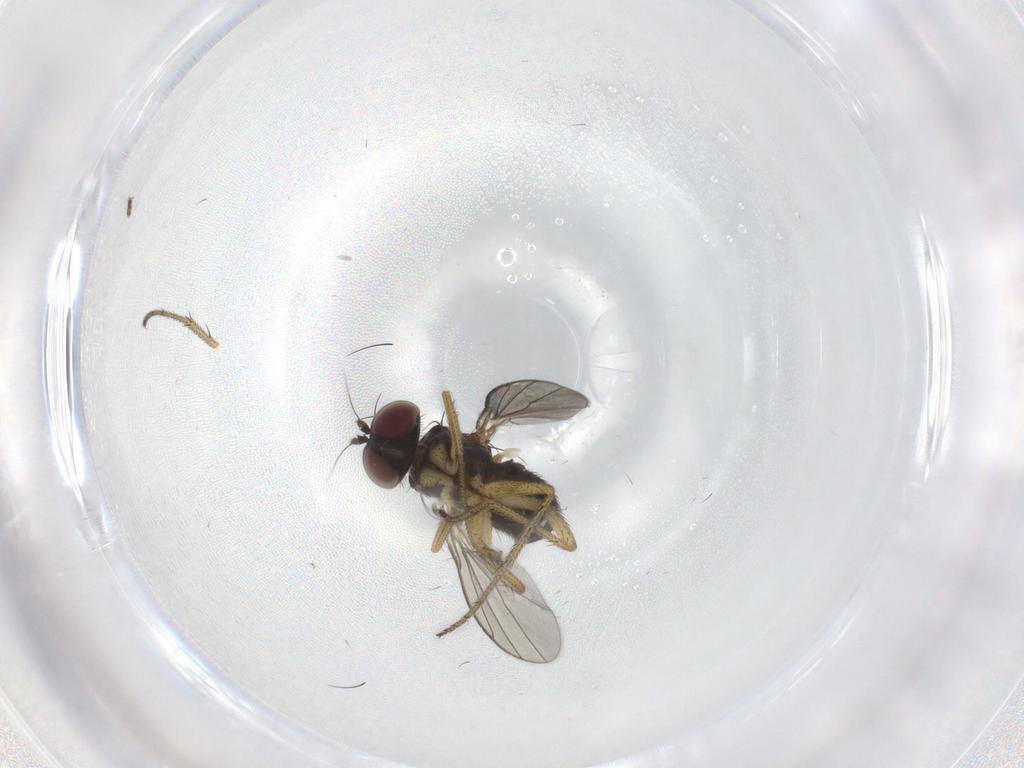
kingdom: Animalia
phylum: Arthropoda
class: Insecta
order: Diptera
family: Dolichopodidae
